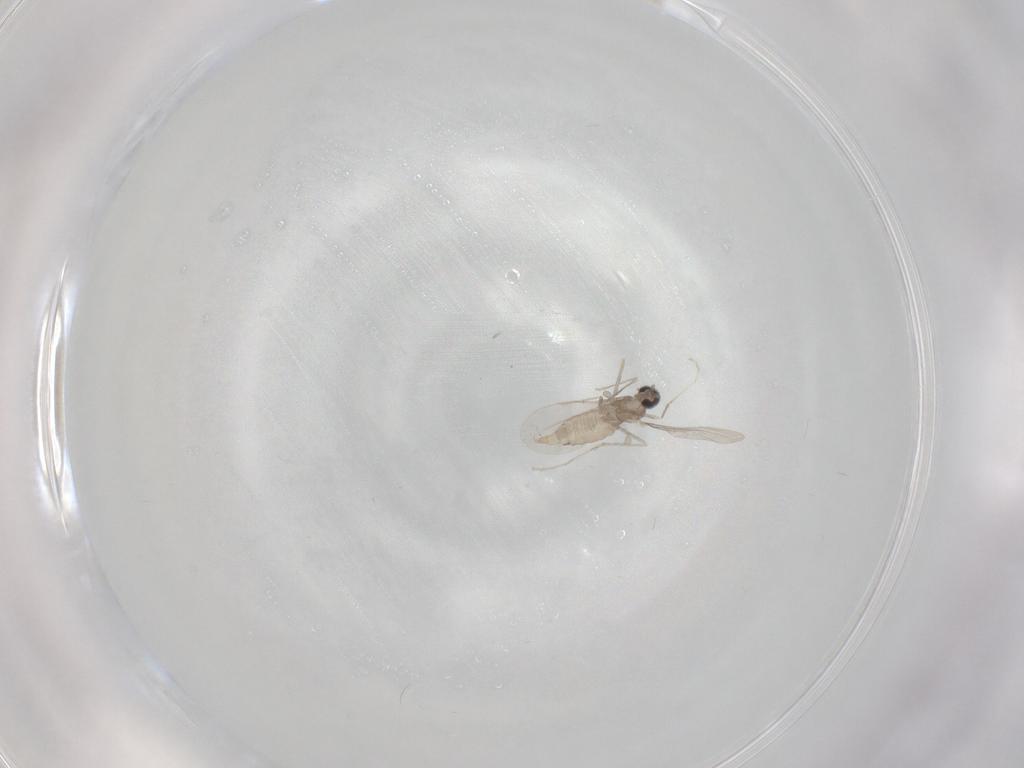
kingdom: Animalia
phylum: Arthropoda
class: Insecta
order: Diptera
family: Cecidomyiidae
